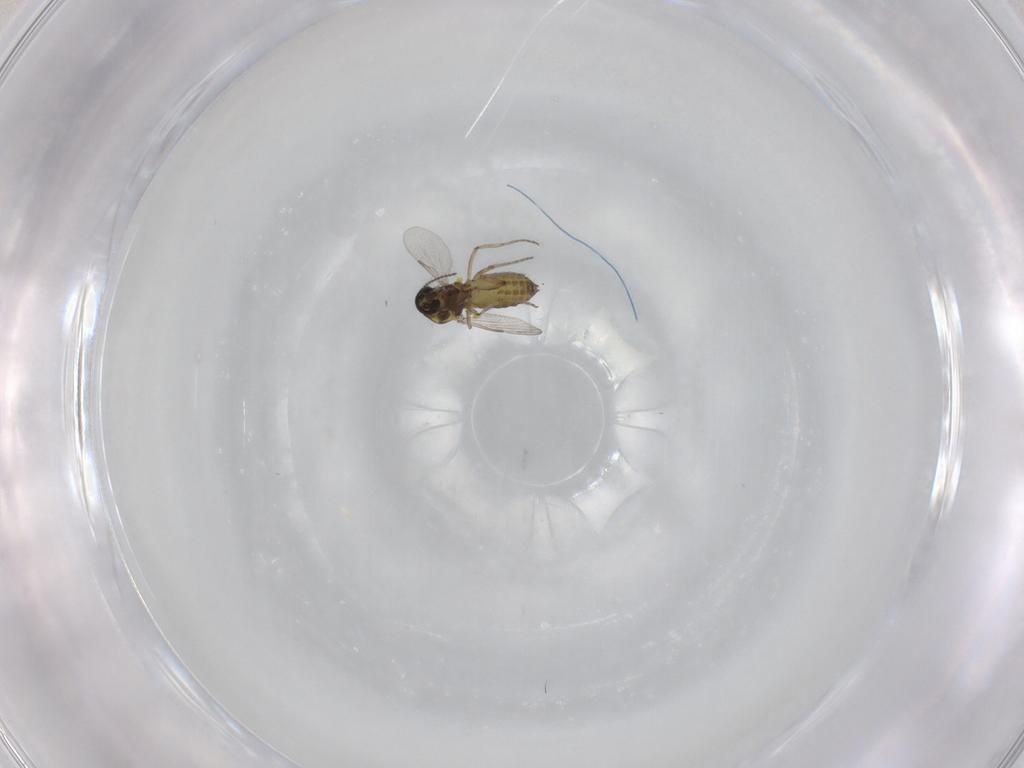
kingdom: Animalia
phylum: Arthropoda
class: Insecta
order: Diptera
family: Ceratopogonidae
